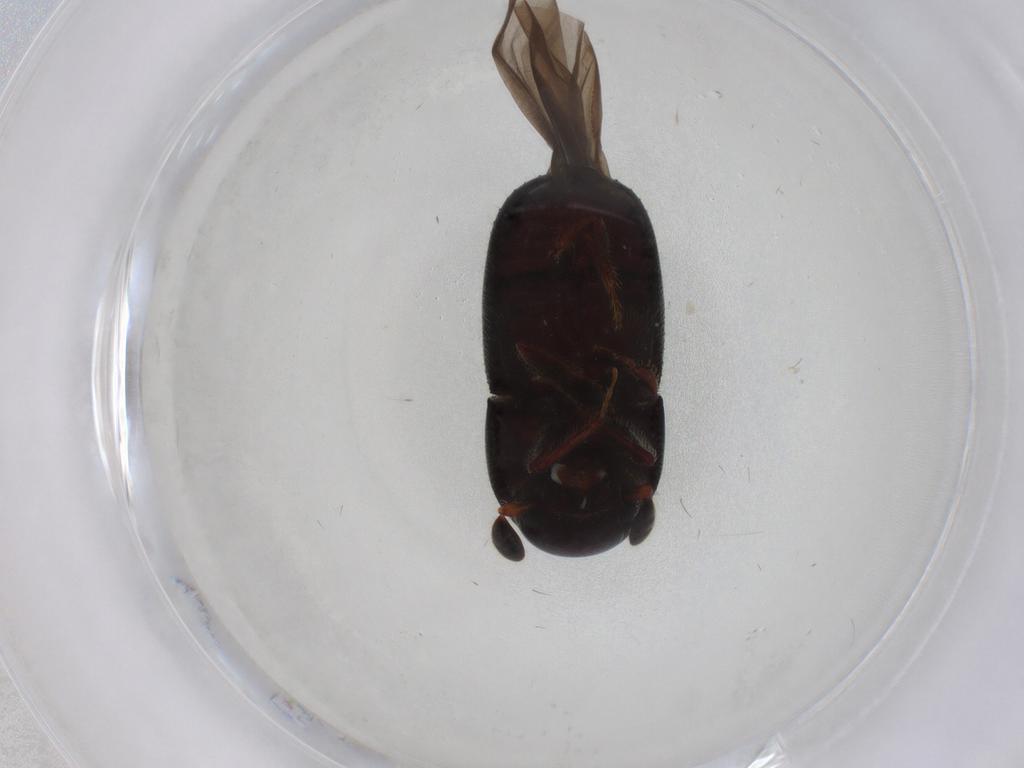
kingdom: Animalia
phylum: Arthropoda
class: Insecta
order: Coleoptera
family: Curculionidae
